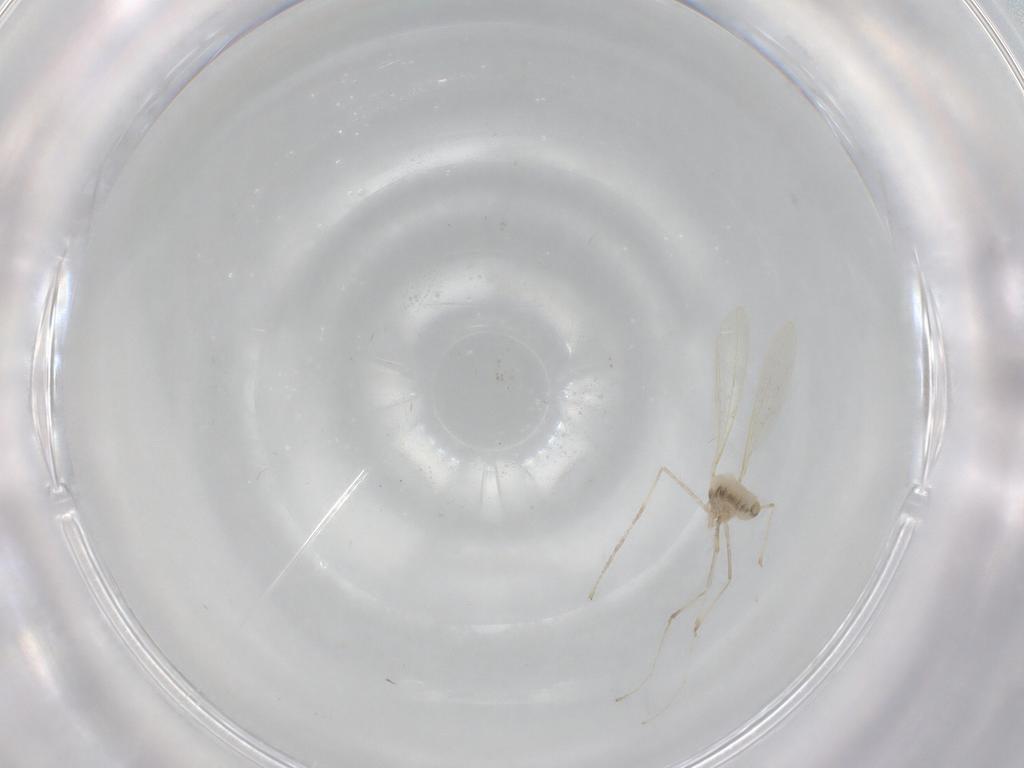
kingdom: Animalia
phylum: Arthropoda
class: Insecta
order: Diptera
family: Cecidomyiidae
